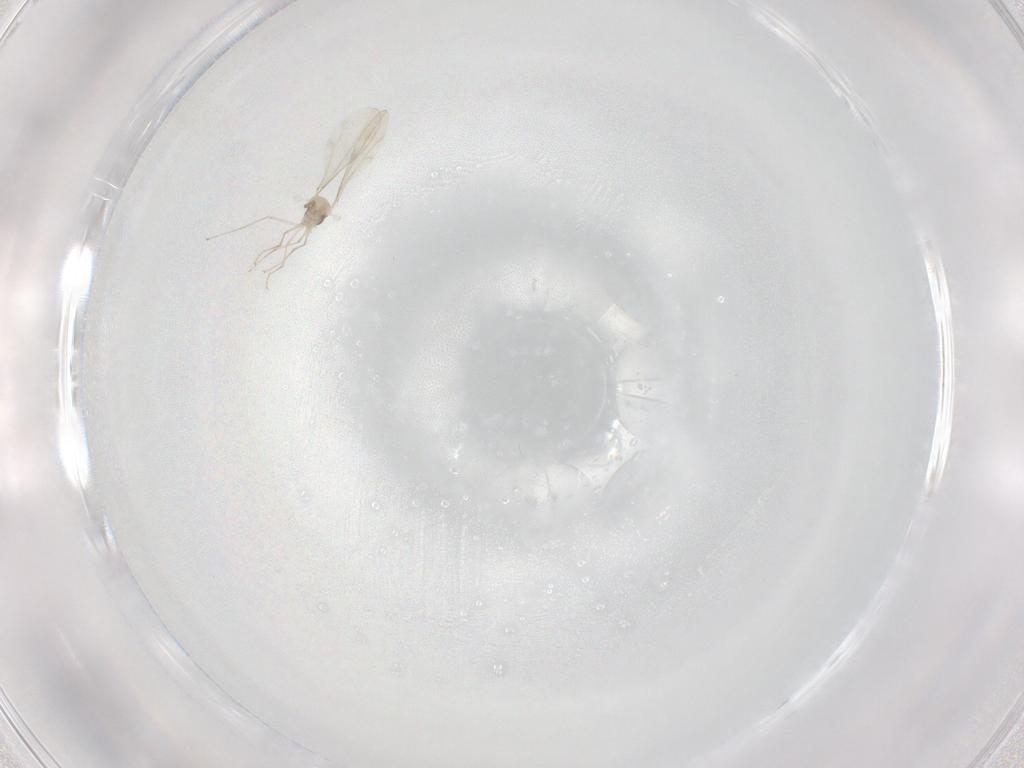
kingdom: Animalia
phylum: Arthropoda
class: Insecta
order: Diptera
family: Cecidomyiidae
